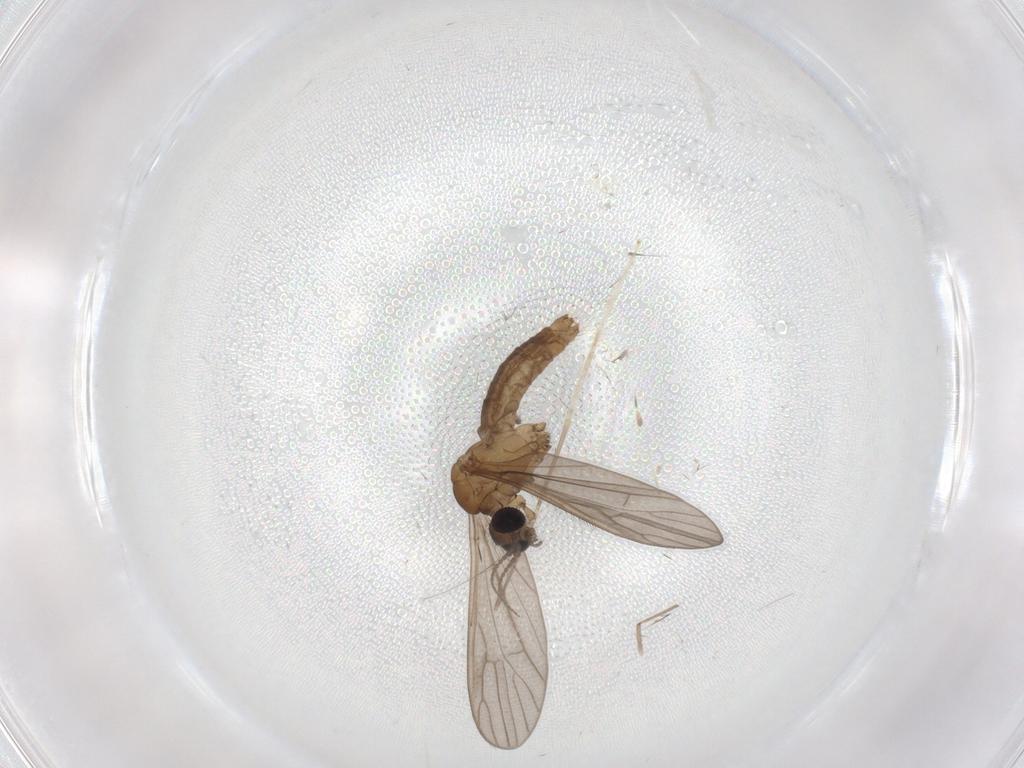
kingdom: Animalia
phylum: Arthropoda
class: Insecta
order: Diptera
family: Limoniidae
